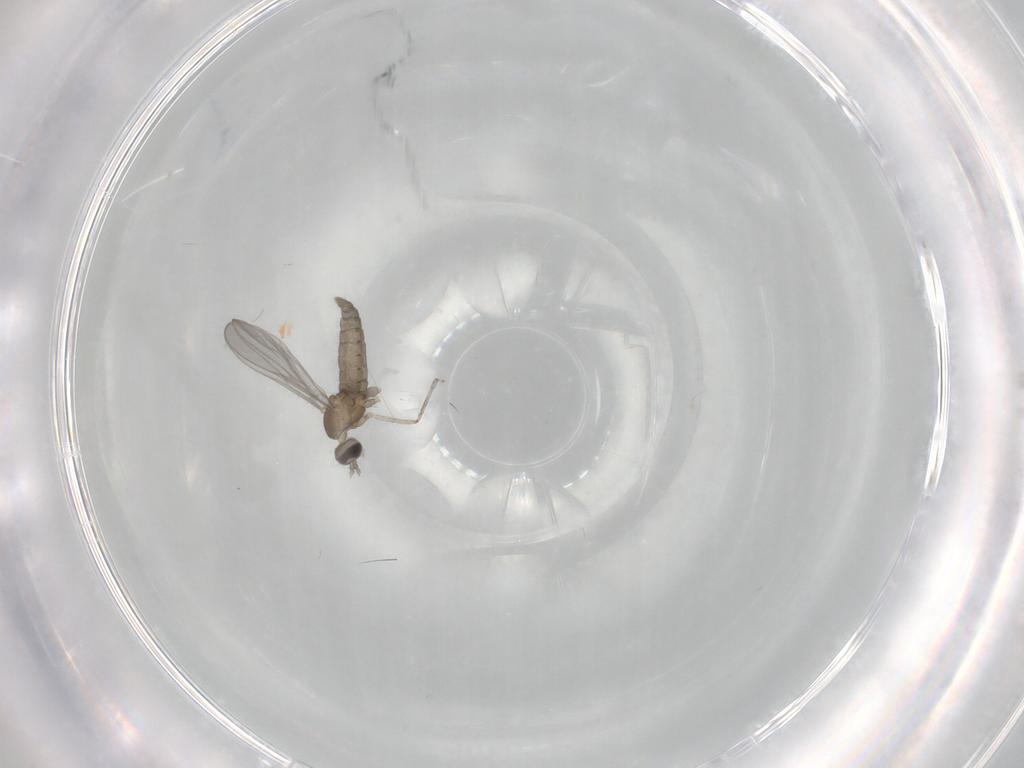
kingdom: Animalia
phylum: Arthropoda
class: Insecta
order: Diptera
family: Cecidomyiidae
